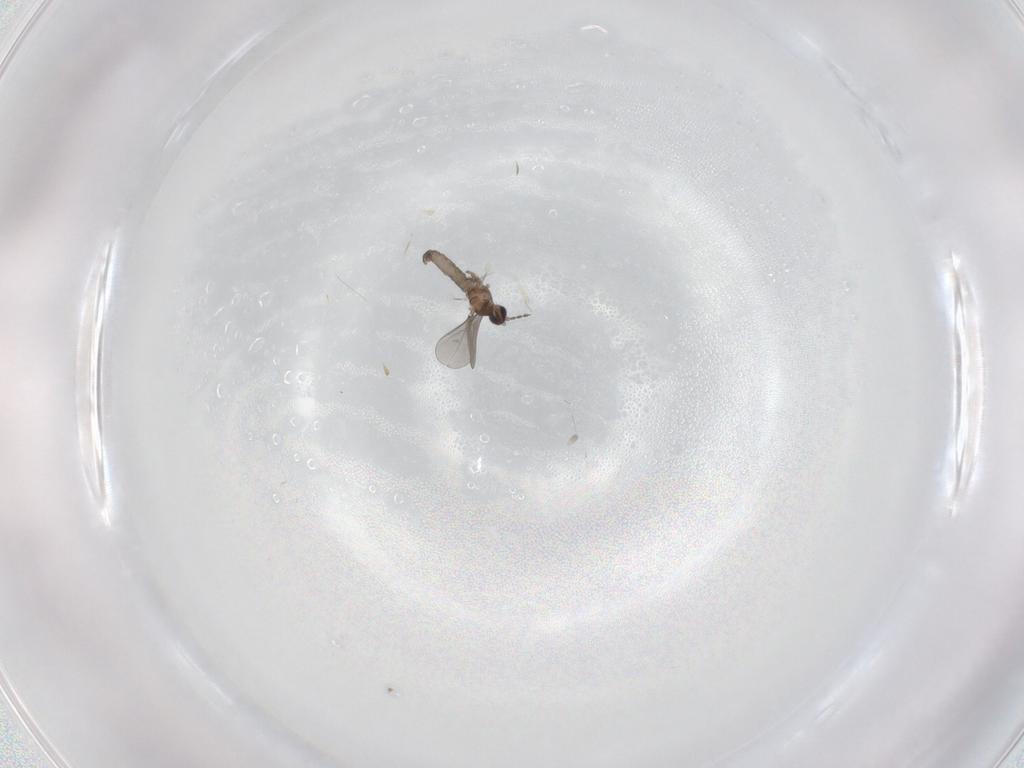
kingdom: Animalia
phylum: Arthropoda
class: Insecta
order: Diptera
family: Cecidomyiidae
